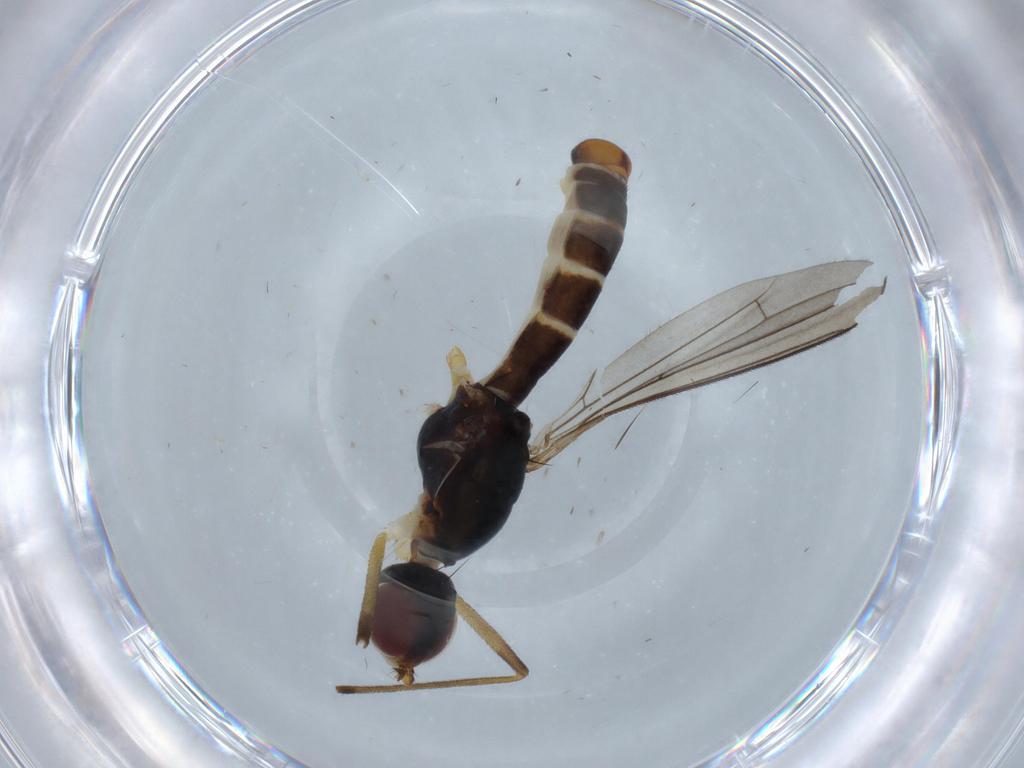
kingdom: Animalia
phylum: Arthropoda
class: Insecta
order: Diptera
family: Micropezidae
